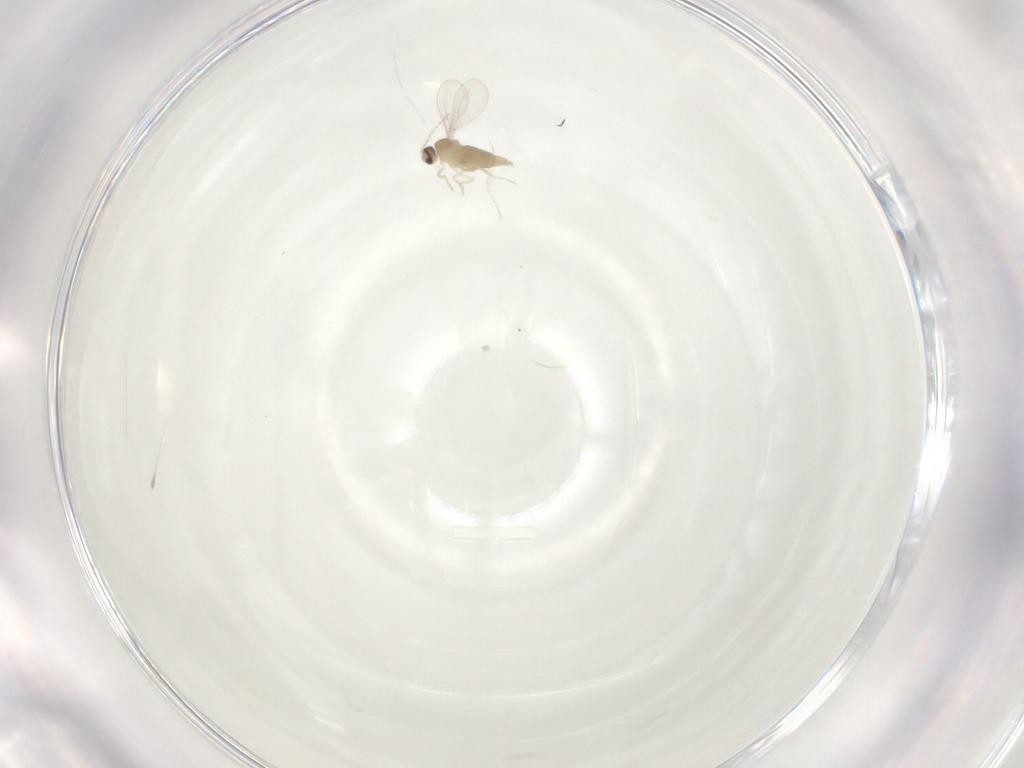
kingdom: Animalia
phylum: Arthropoda
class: Insecta
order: Diptera
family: Cecidomyiidae
